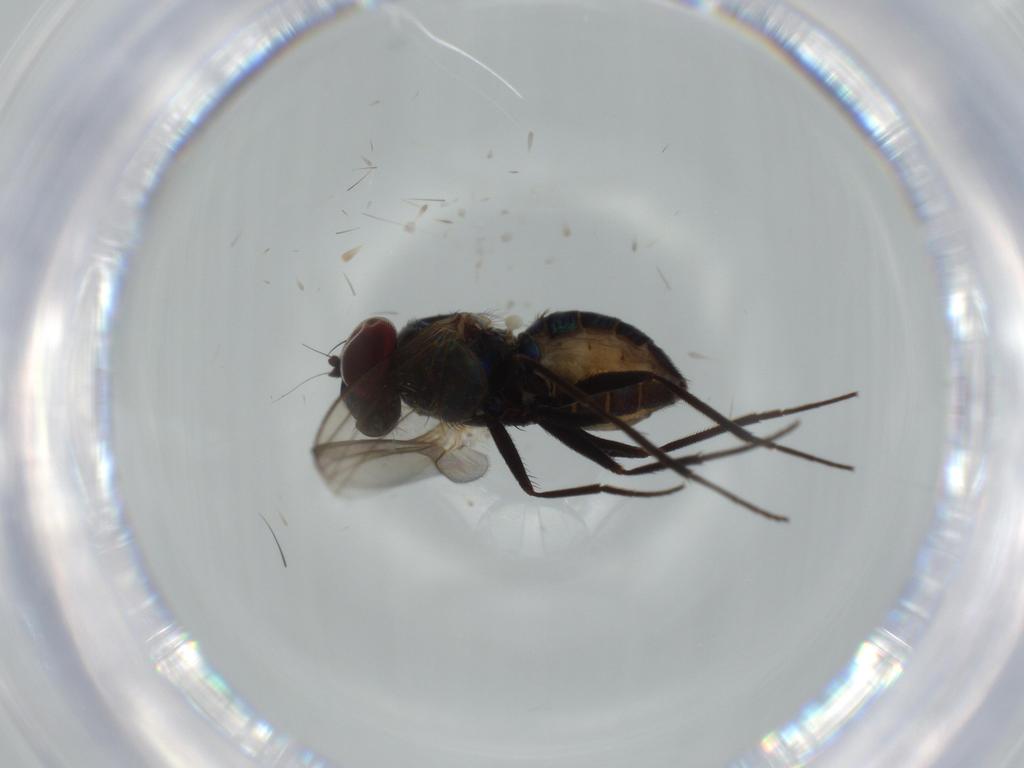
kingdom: Animalia
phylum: Arthropoda
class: Insecta
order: Diptera
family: Dolichopodidae
